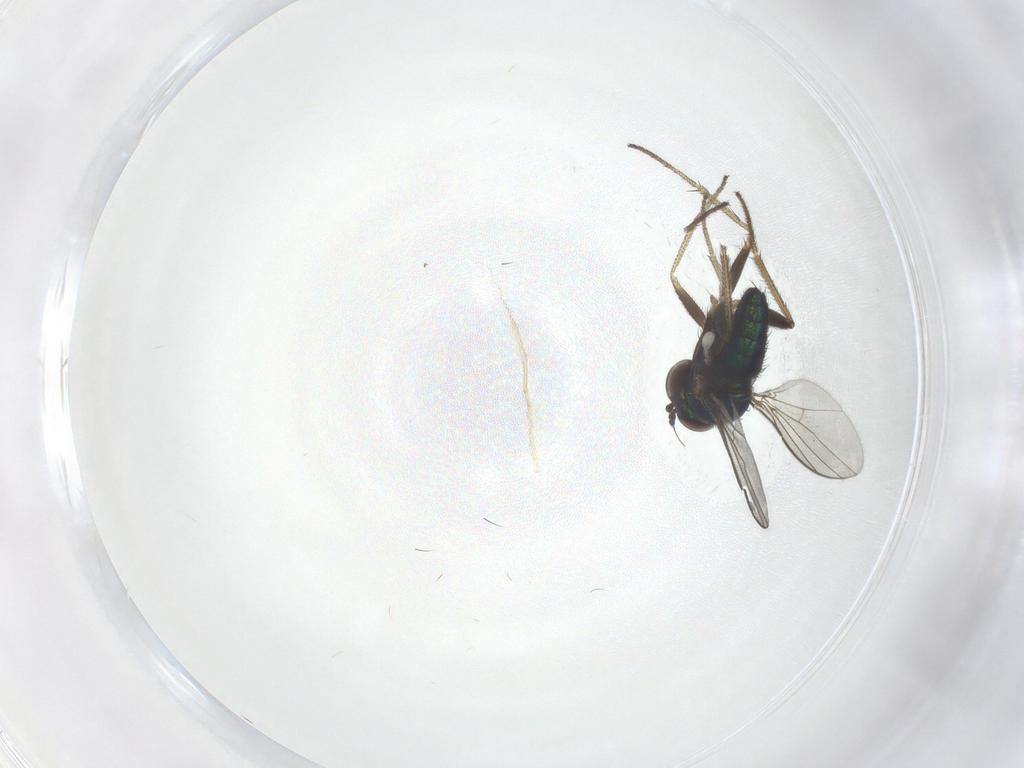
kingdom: Animalia
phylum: Arthropoda
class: Insecta
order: Diptera
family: Dolichopodidae
